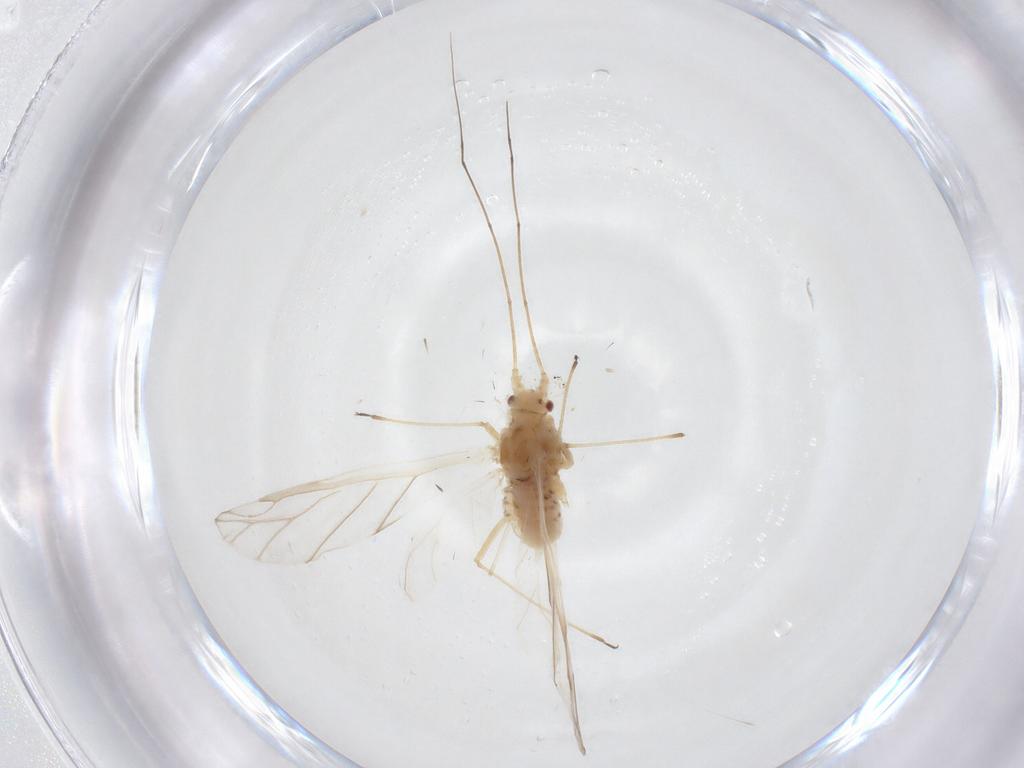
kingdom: Animalia
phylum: Arthropoda
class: Insecta
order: Hemiptera
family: Aphididae
